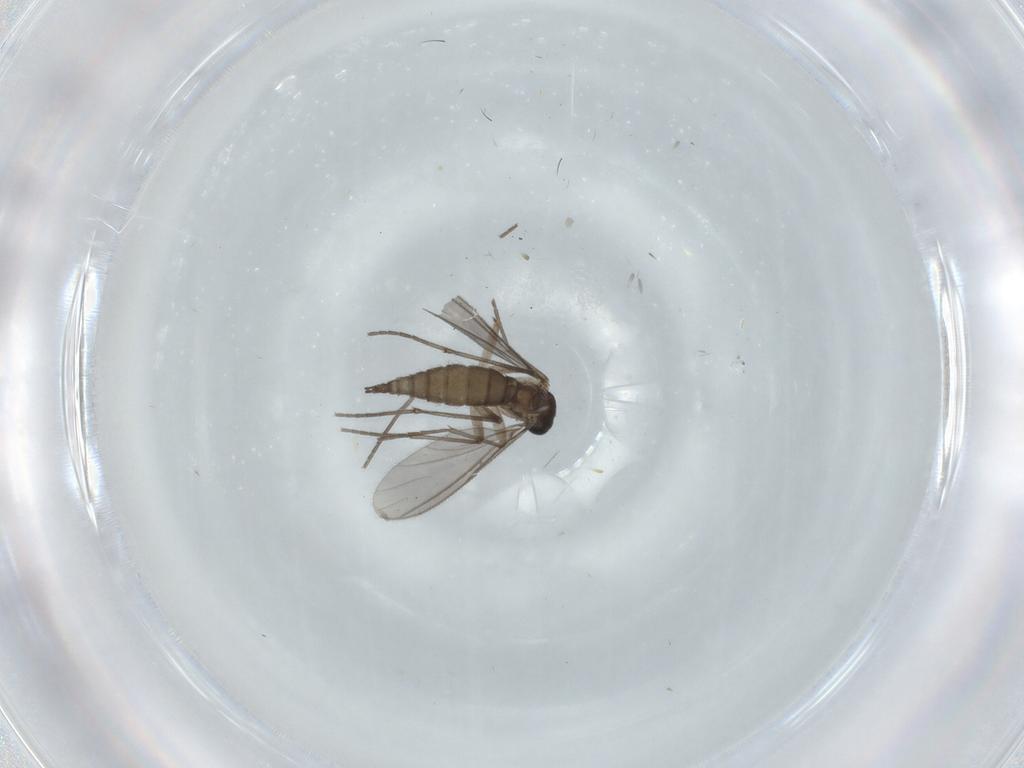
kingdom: Animalia
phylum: Arthropoda
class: Insecta
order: Diptera
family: Sciaridae
